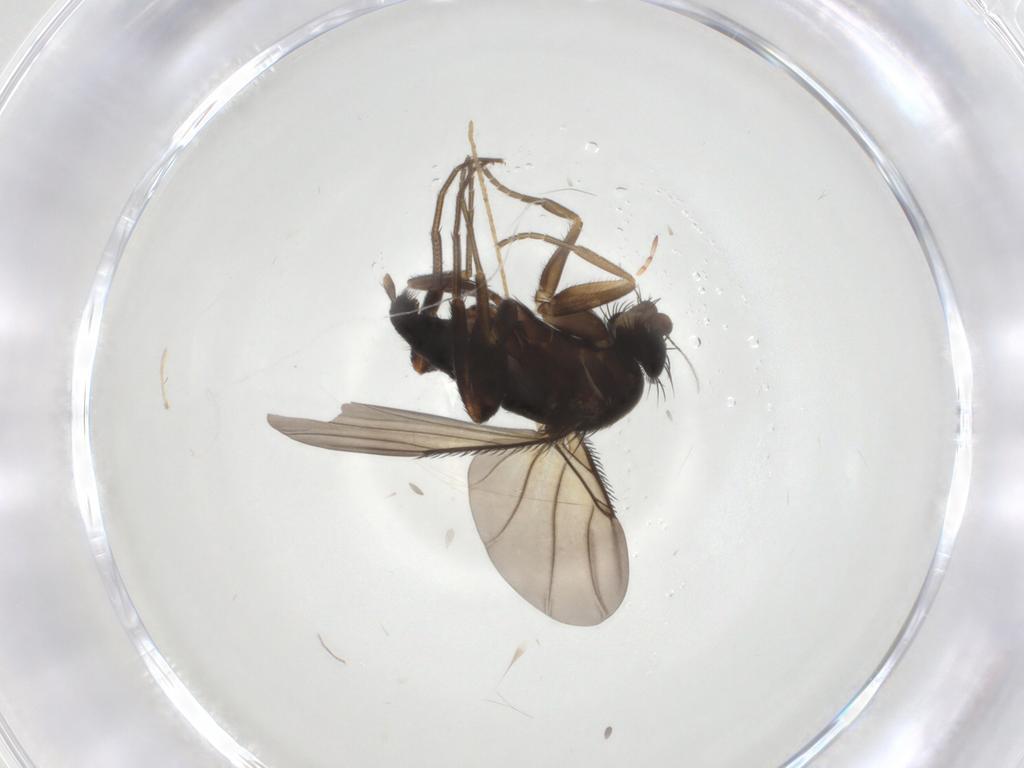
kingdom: Animalia
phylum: Arthropoda
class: Insecta
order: Diptera
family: Phoridae
